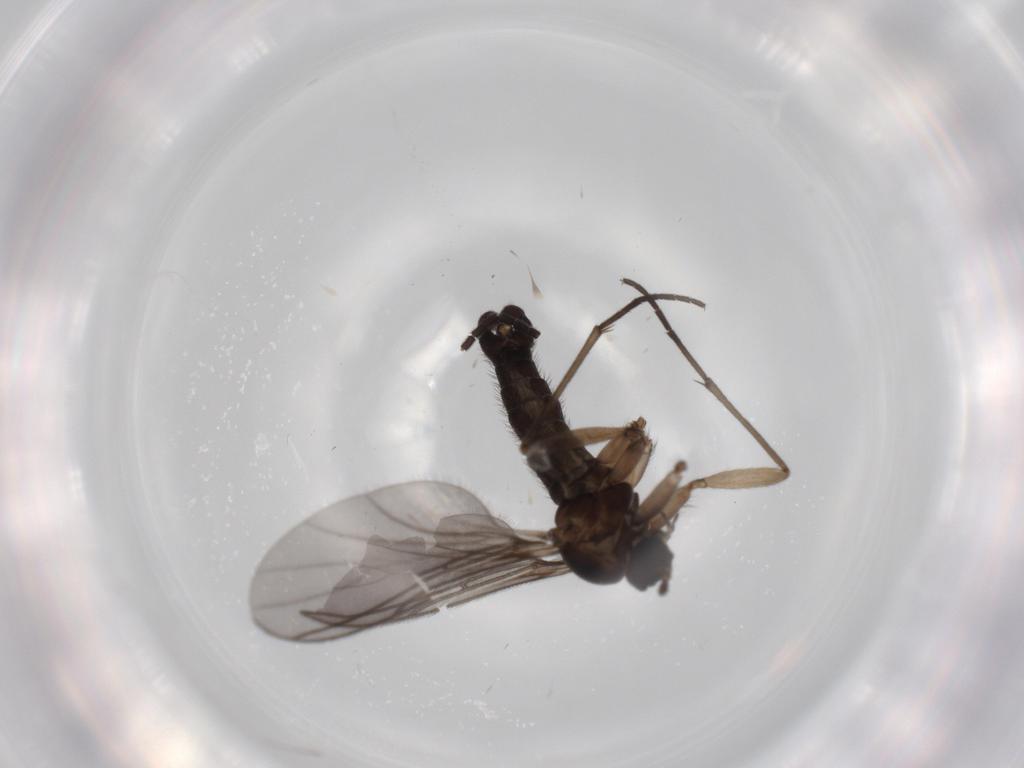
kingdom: Animalia
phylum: Arthropoda
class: Insecta
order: Diptera
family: Sciaridae
